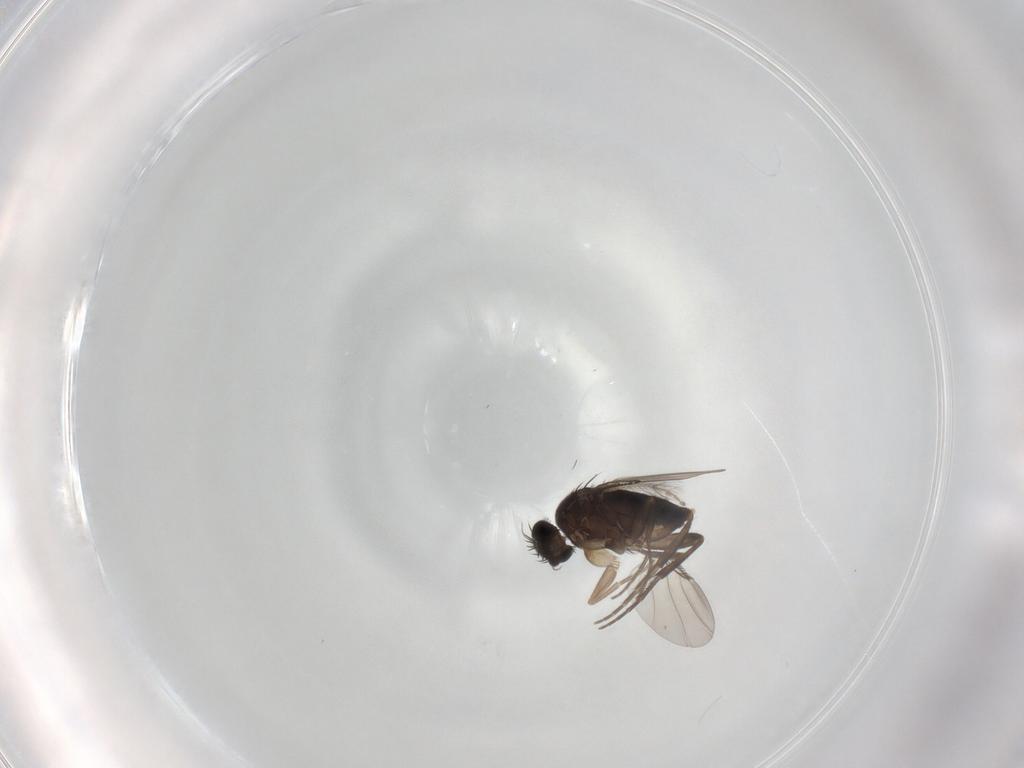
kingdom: Animalia
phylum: Arthropoda
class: Insecta
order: Diptera
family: Phoridae
